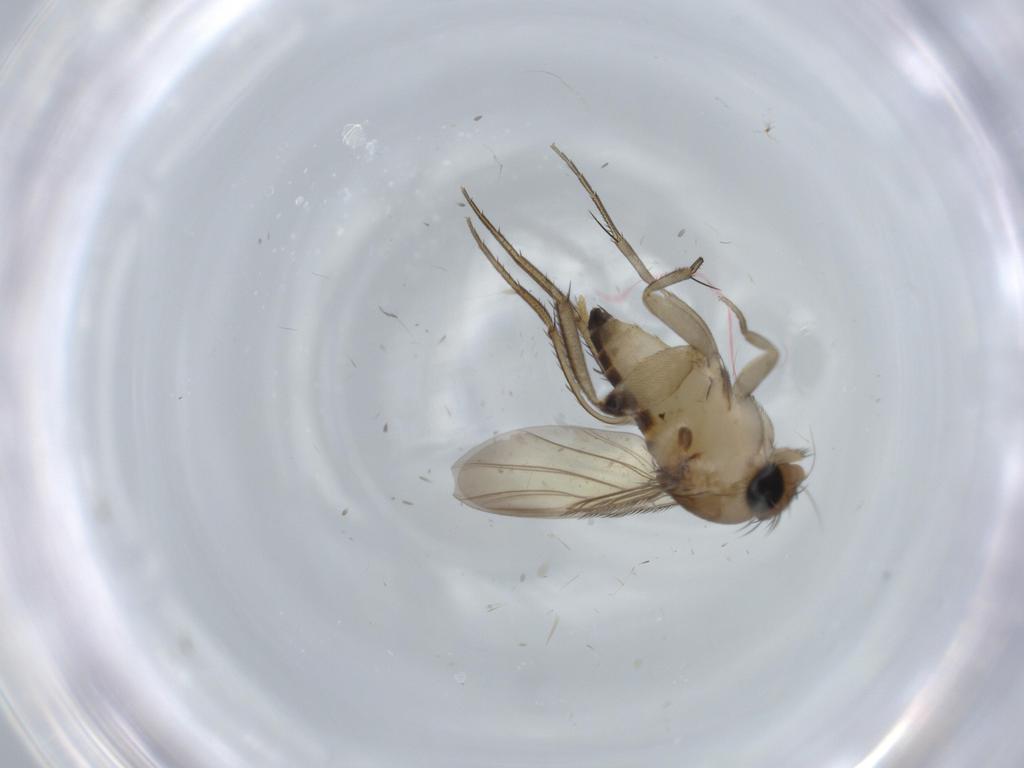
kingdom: Animalia
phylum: Arthropoda
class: Insecta
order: Diptera
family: Phoridae
